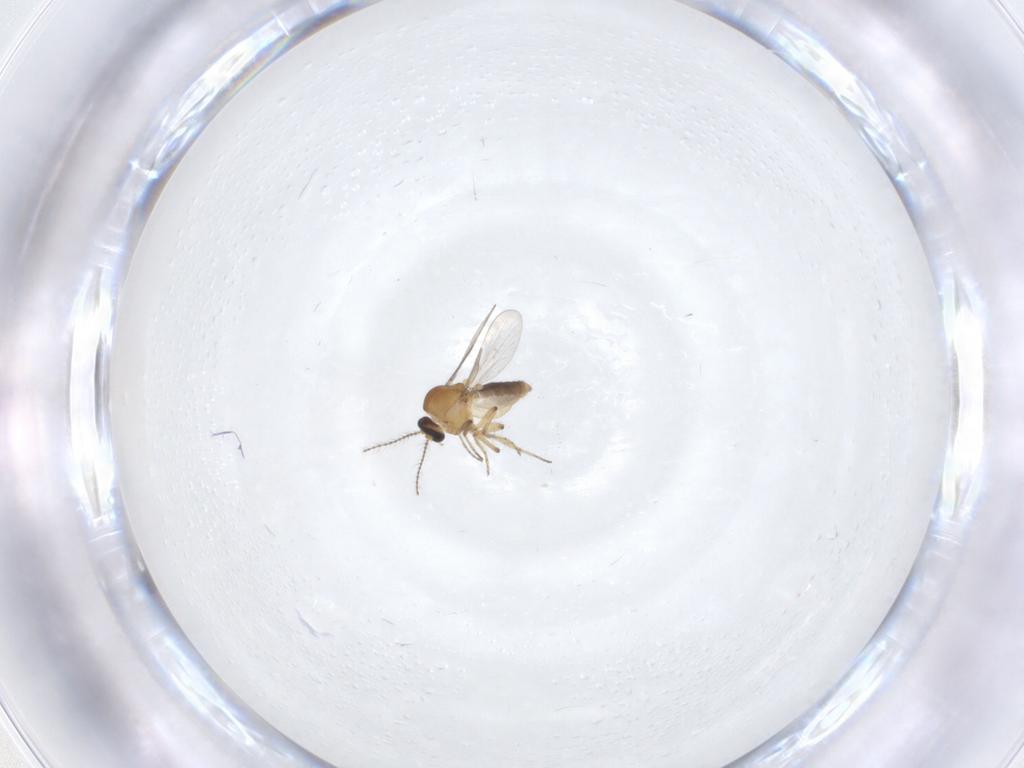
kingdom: Animalia
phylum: Arthropoda
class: Insecta
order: Diptera
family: Ceratopogonidae
